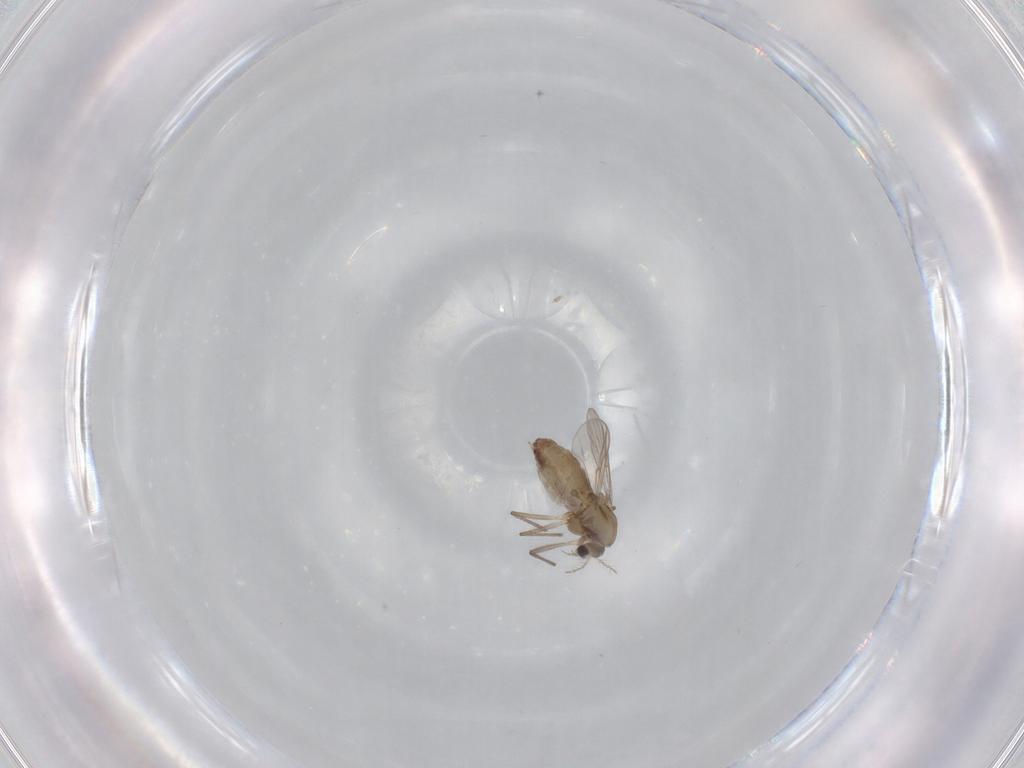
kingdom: Animalia
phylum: Arthropoda
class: Insecta
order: Diptera
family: Chironomidae
